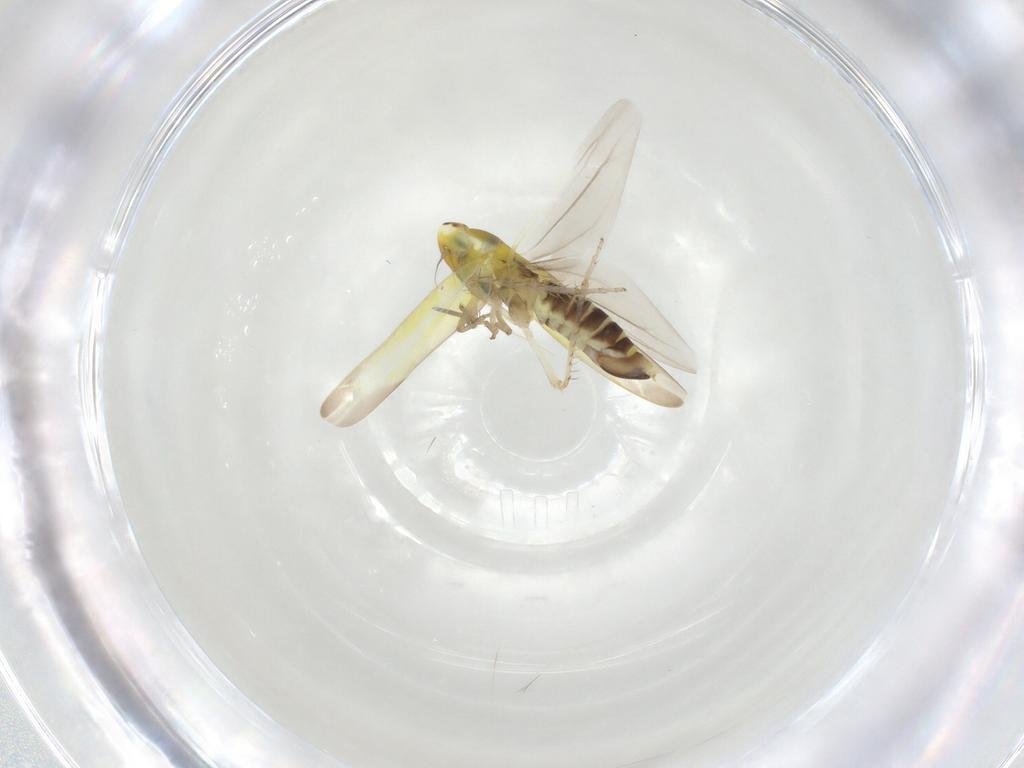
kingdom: Animalia
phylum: Arthropoda
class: Insecta
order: Hemiptera
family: Cicadellidae
